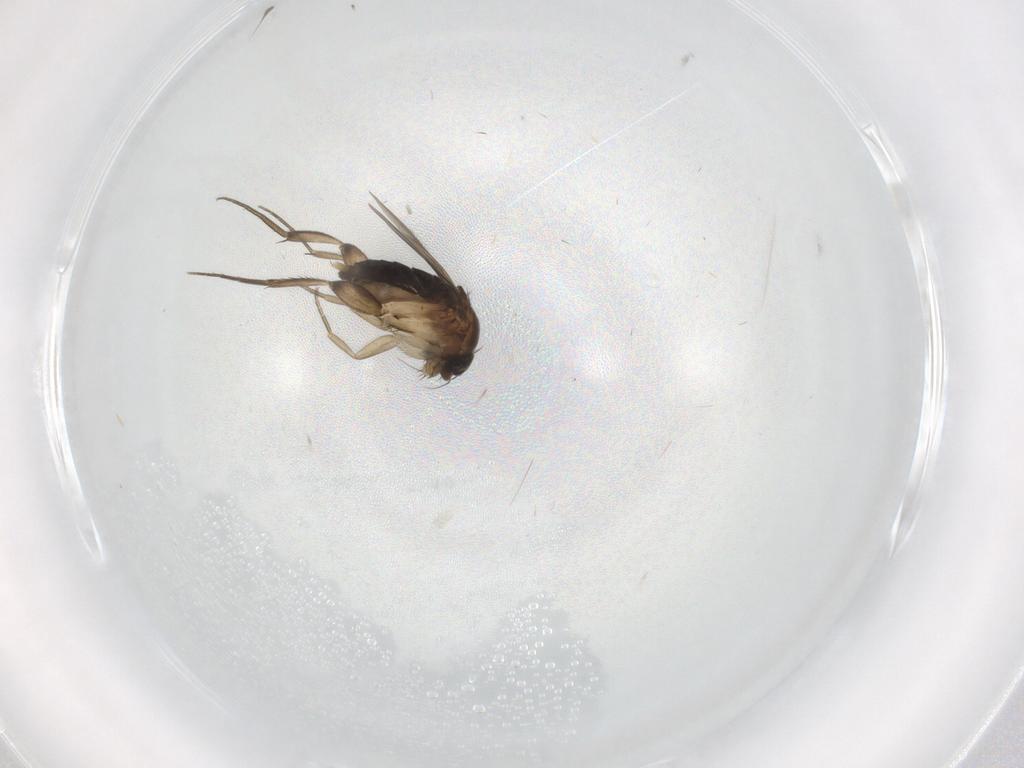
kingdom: Animalia
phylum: Arthropoda
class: Insecta
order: Diptera
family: Phoridae
